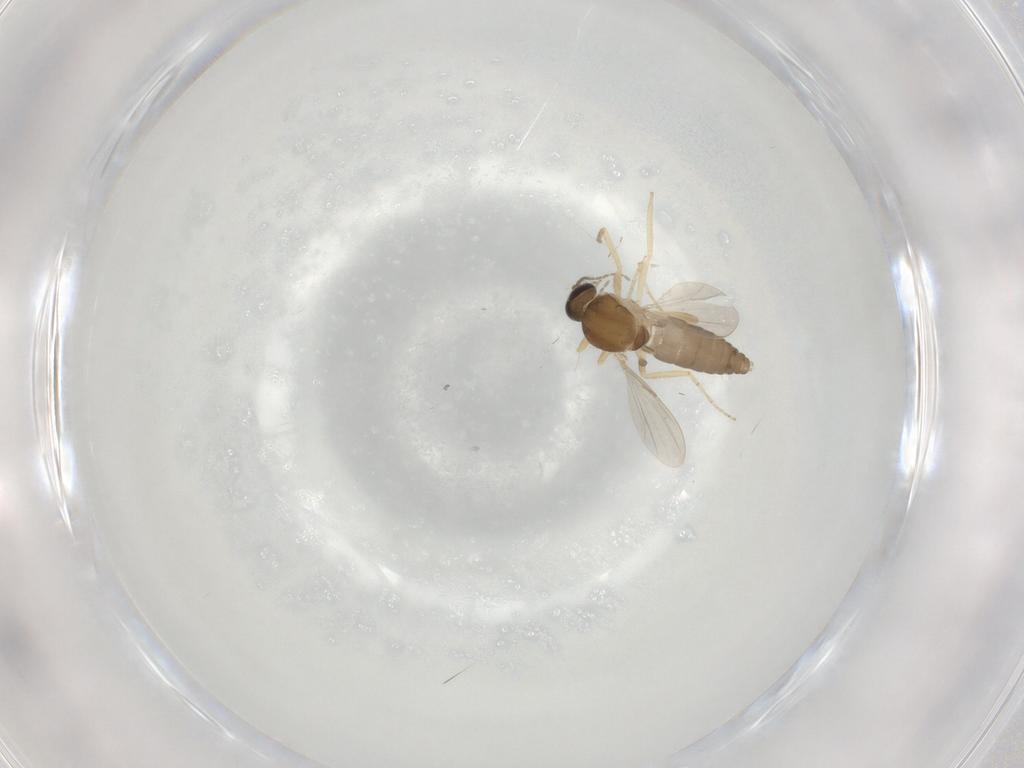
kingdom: Animalia
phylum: Arthropoda
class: Insecta
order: Diptera
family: Ceratopogonidae
